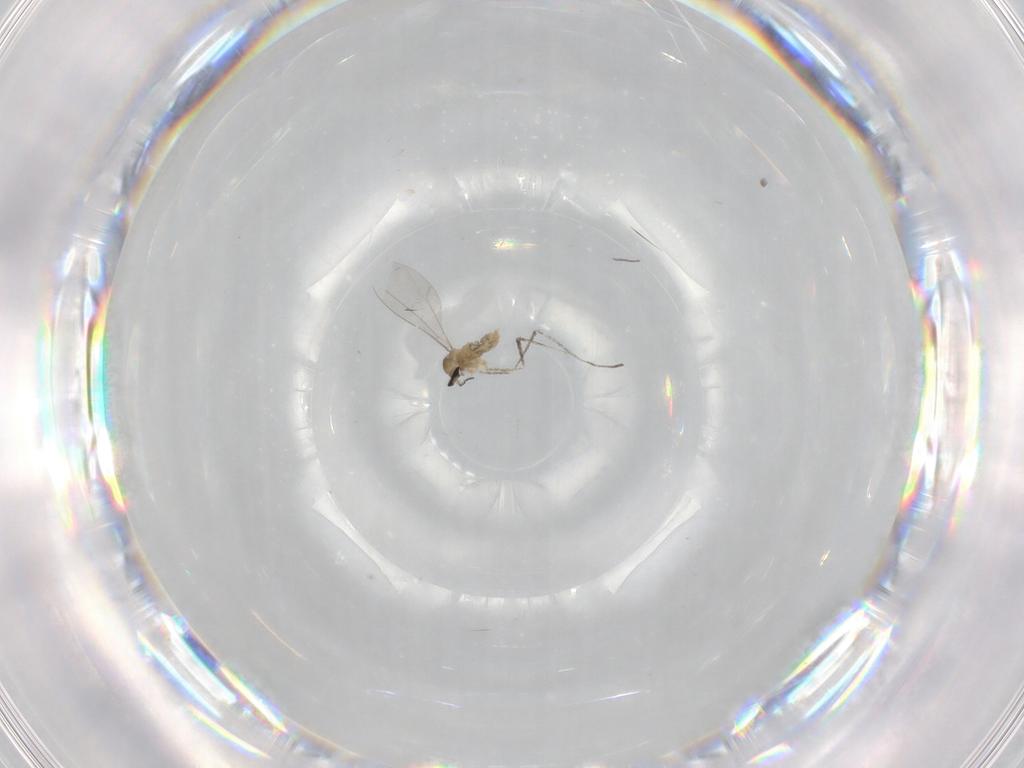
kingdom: Animalia
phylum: Arthropoda
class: Insecta
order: Diptera
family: Cecidomyiidae
